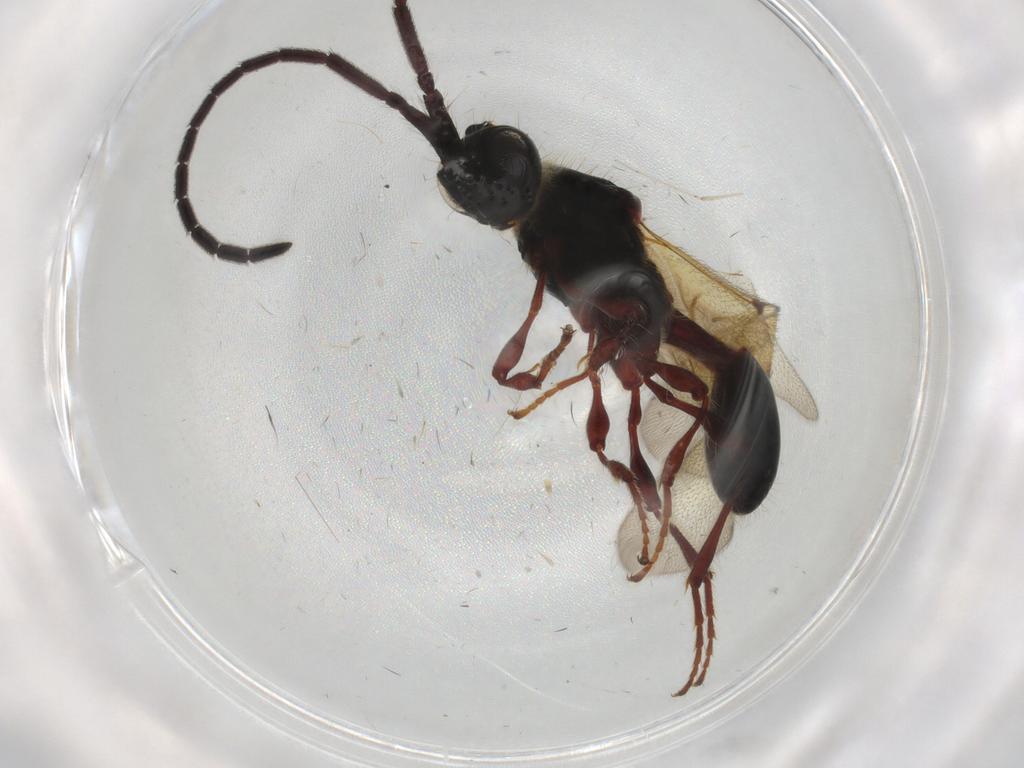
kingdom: Animalia
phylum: Arthropoda
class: Insecta
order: Hymenoptera
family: Diapriidae
